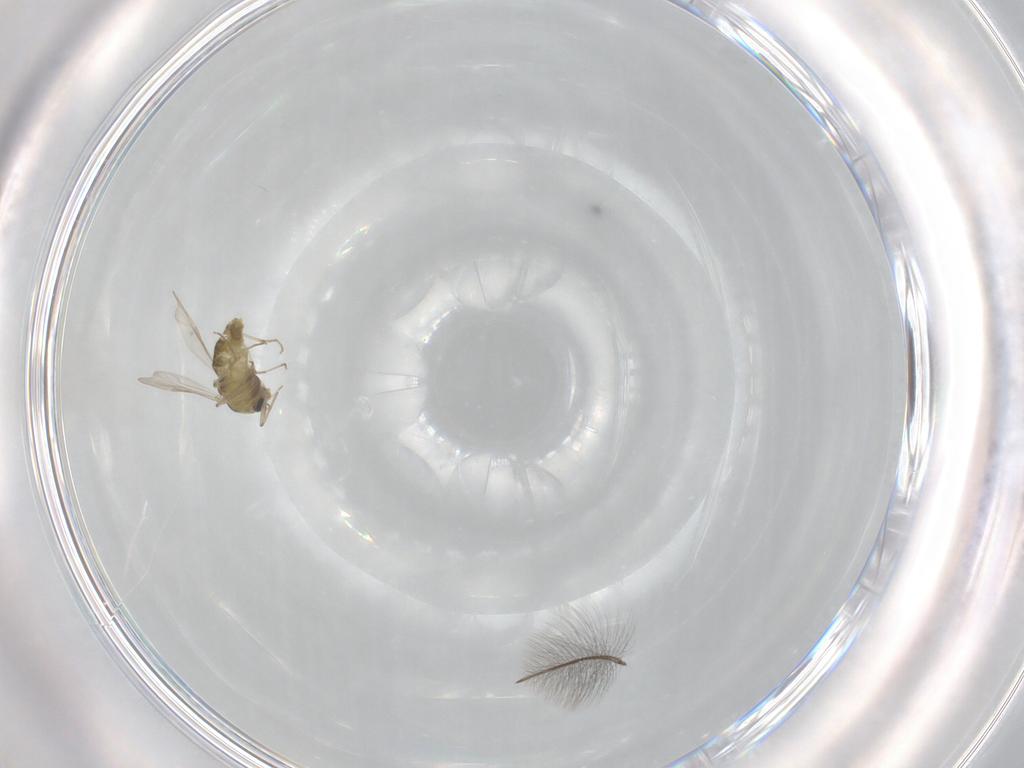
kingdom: Animalia
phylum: Arthropoda
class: Insecta
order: Diptera
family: Chironomidae
